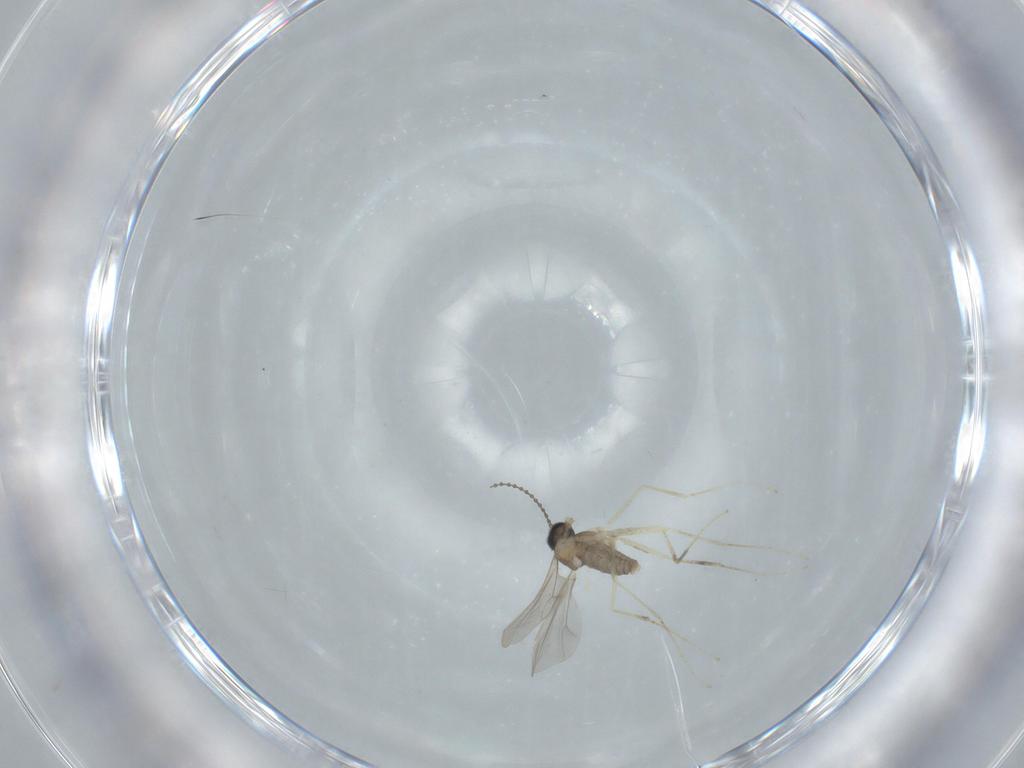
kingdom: Animalia
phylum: Arthropoda
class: Insecta
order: Diptera
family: Cecidomyiidae
